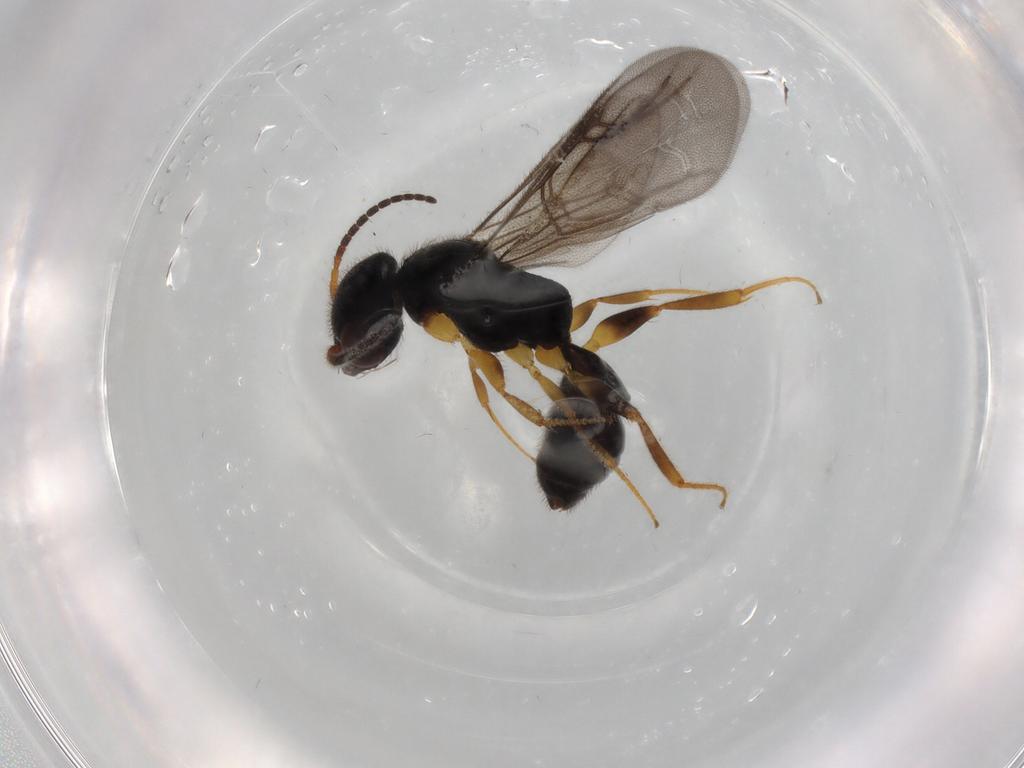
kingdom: Animalia
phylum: Arthropoda
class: Insecta
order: Hymenoptera
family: Bethylidae
